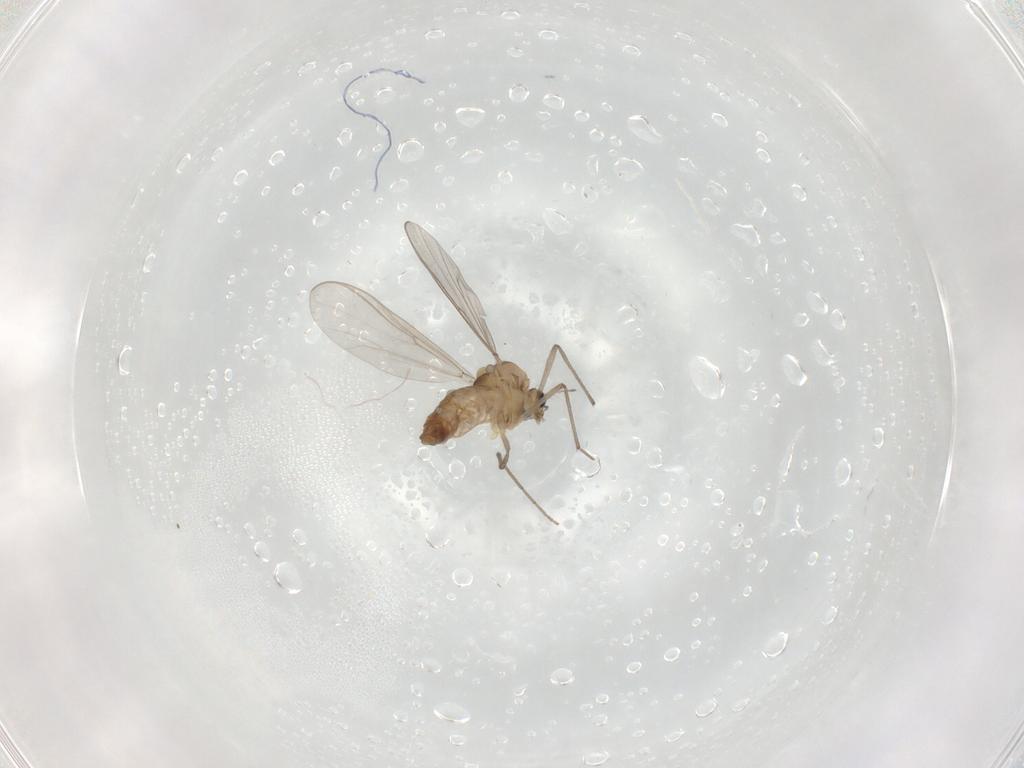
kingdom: Animalia
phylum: Arthropoda
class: Insecta
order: Diptera
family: Chironomidae
